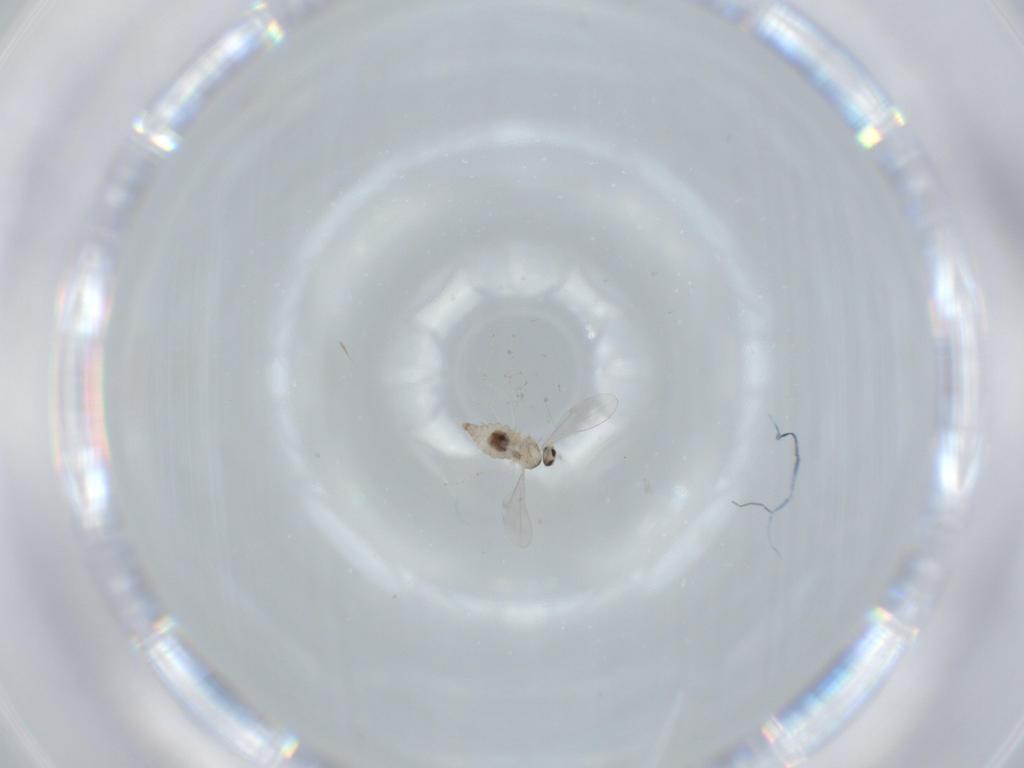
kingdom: Animalia
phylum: Arthropoda
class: Insecta
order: Diptera
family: Cecidomyiidae
